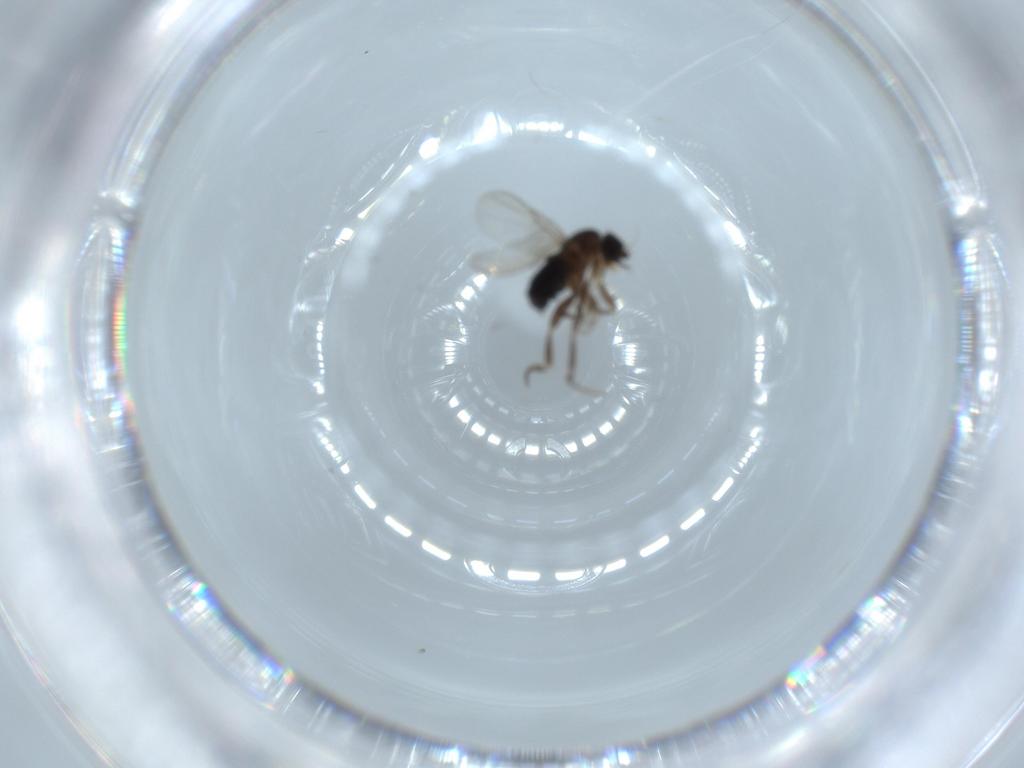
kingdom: Animalia
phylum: Arthropoda
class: Insecta
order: Diptera
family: Phoridae
